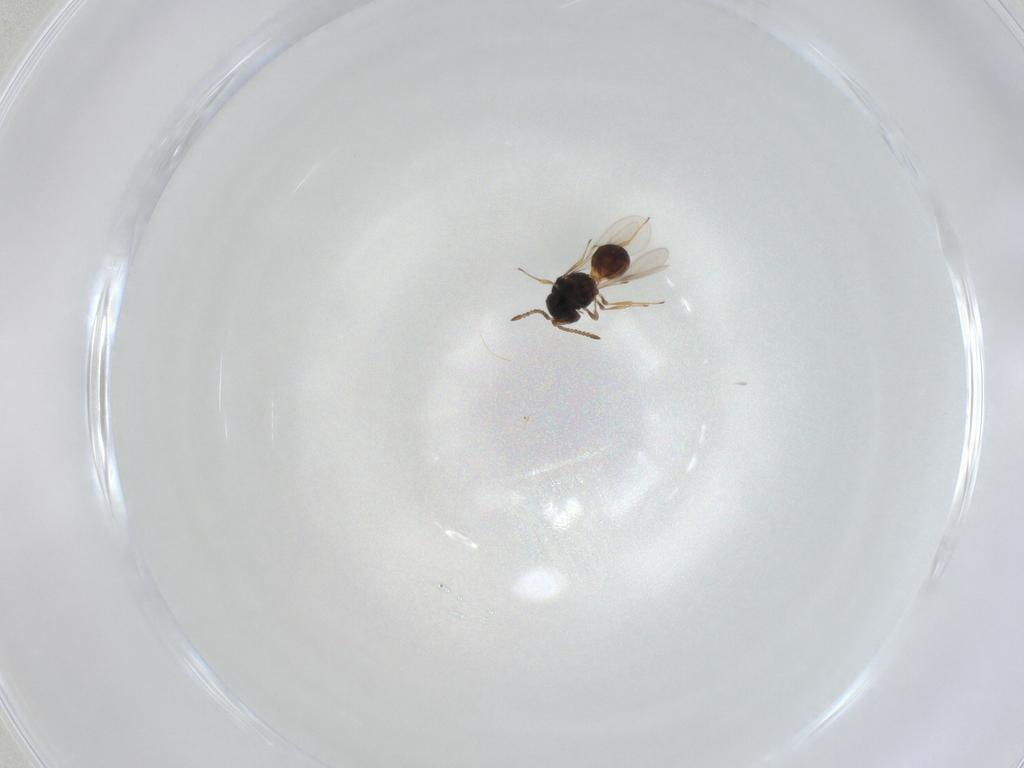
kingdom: Animalia
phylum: Arthropoda
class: Insecta
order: Hymenoptera
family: Scelionidae
